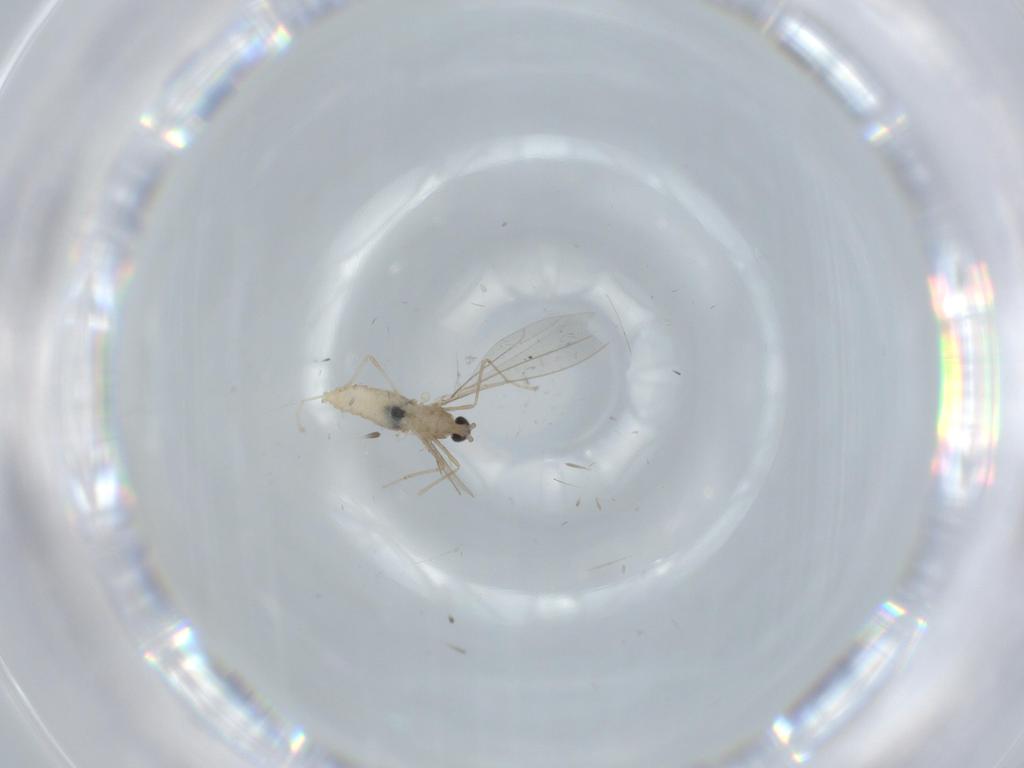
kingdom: Animalia
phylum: Arthropoda
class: Insecta
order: Diptera
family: Cecidomyiidae
